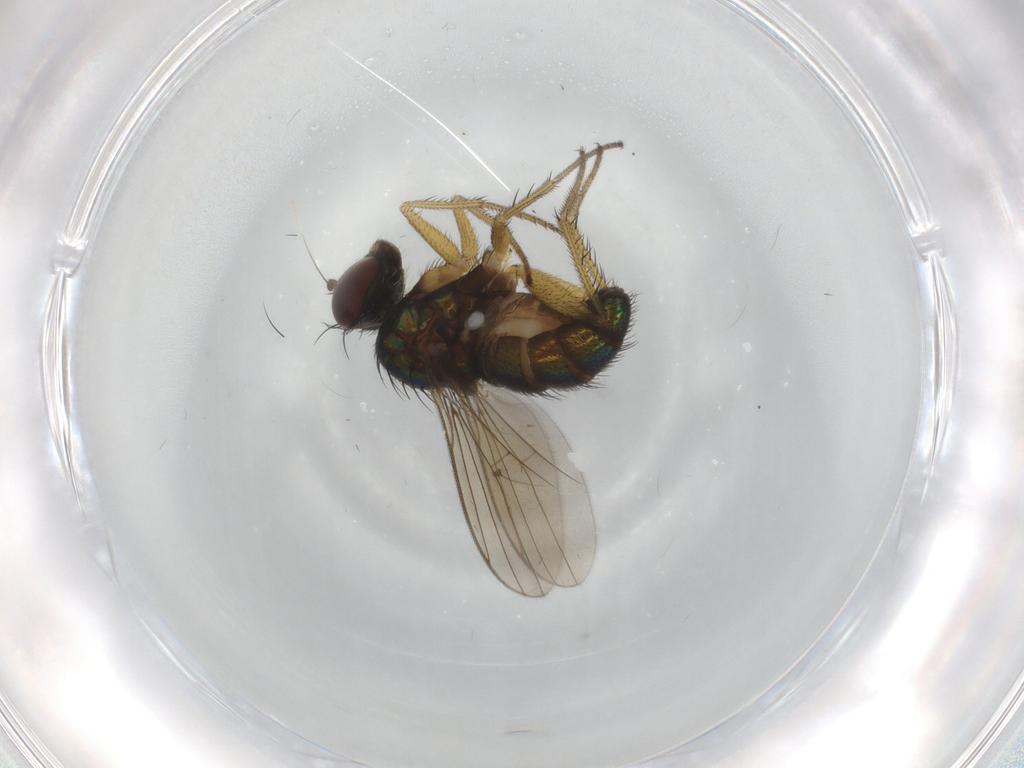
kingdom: Animalia
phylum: Arthropoda
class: Insecta
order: Diptera
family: Dolichopodidae
